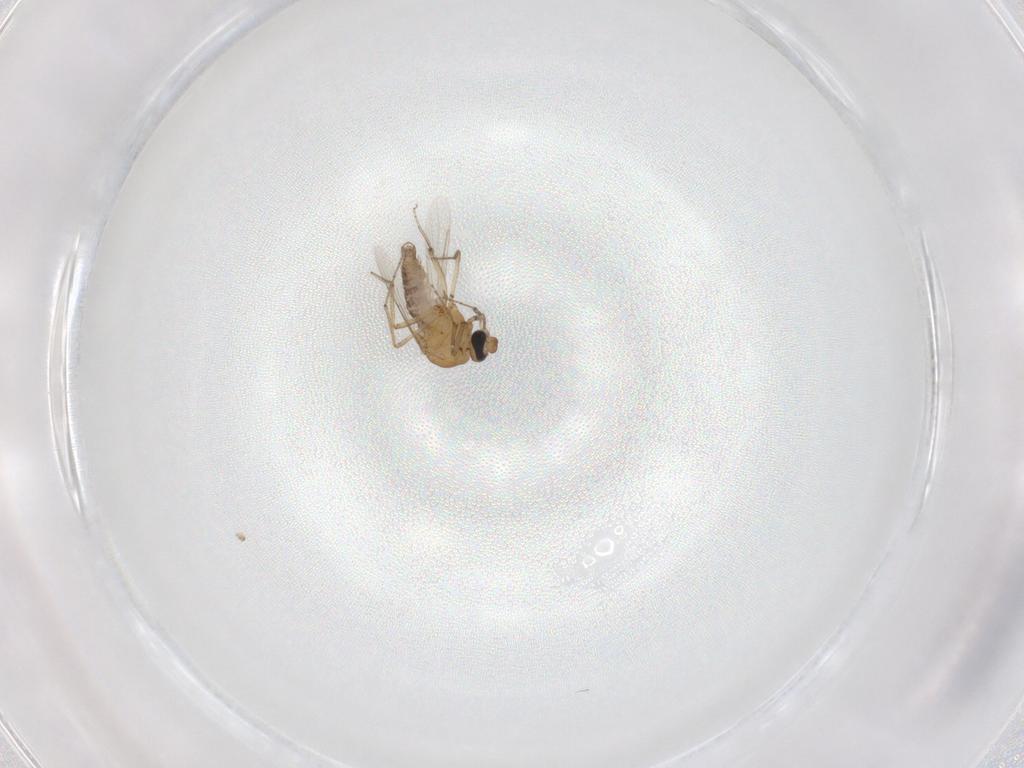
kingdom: Animalia
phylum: Arthropoda
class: Insecta
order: Diptera
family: Ceratopogonidae
